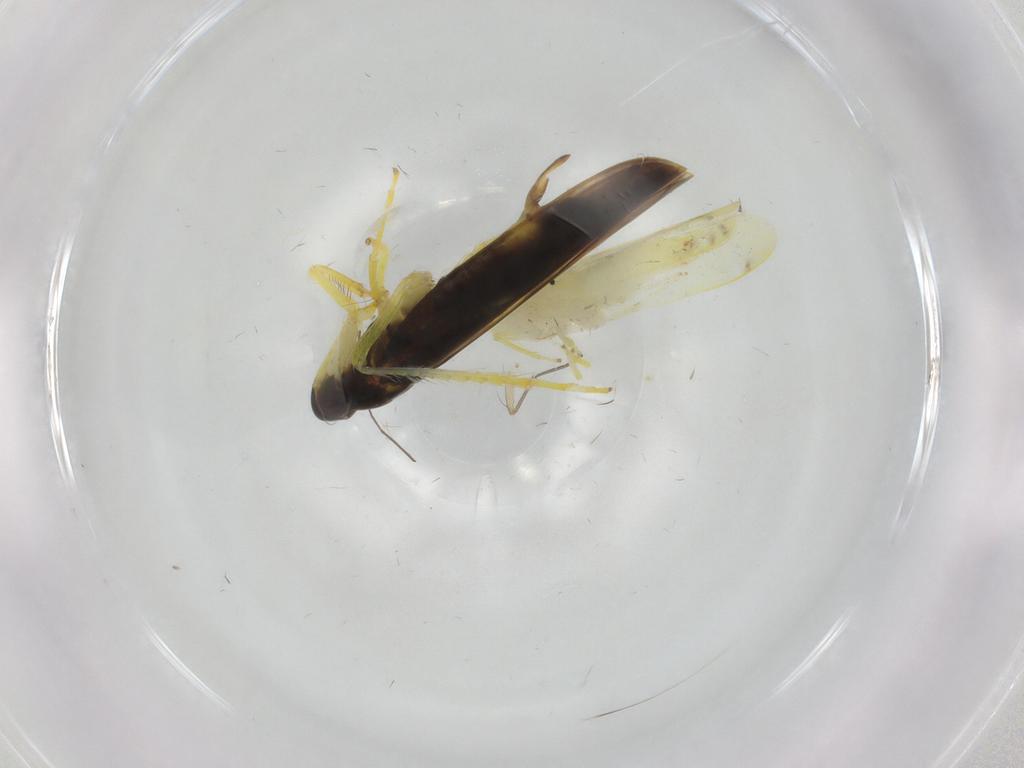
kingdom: Animalia
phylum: Arthropoda
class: Insecta
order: Hemiptera
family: Cicadellidae
